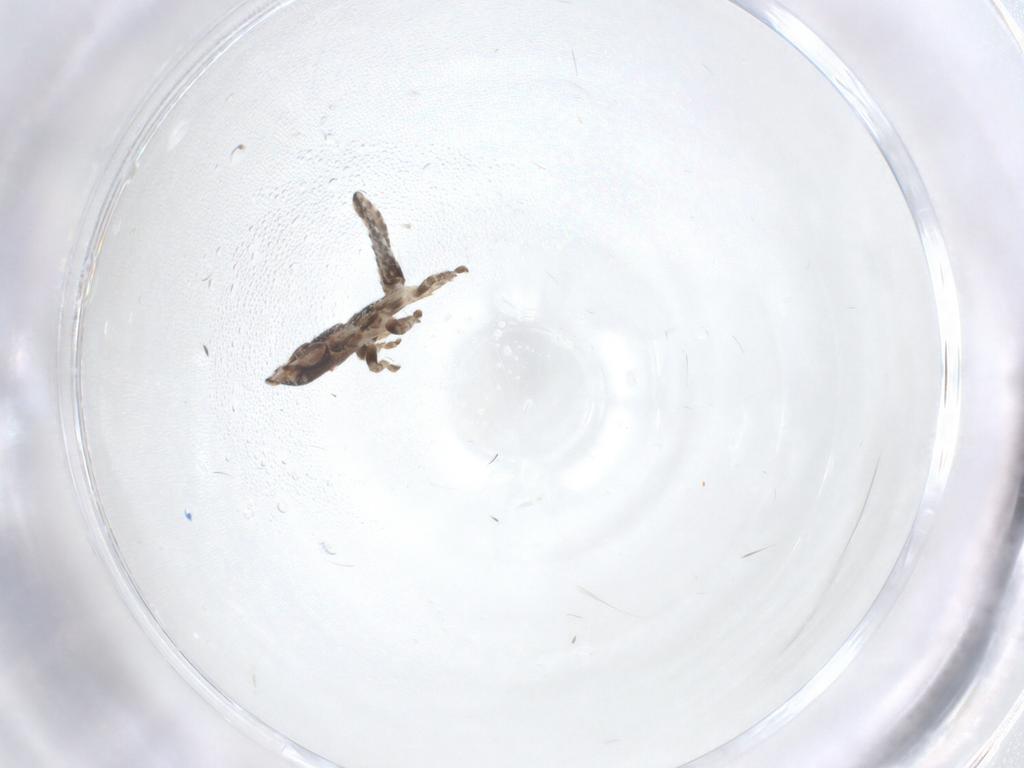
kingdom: Animalia
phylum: Arthropoda
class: Insecta
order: Hemiptera
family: Cicadellidae
